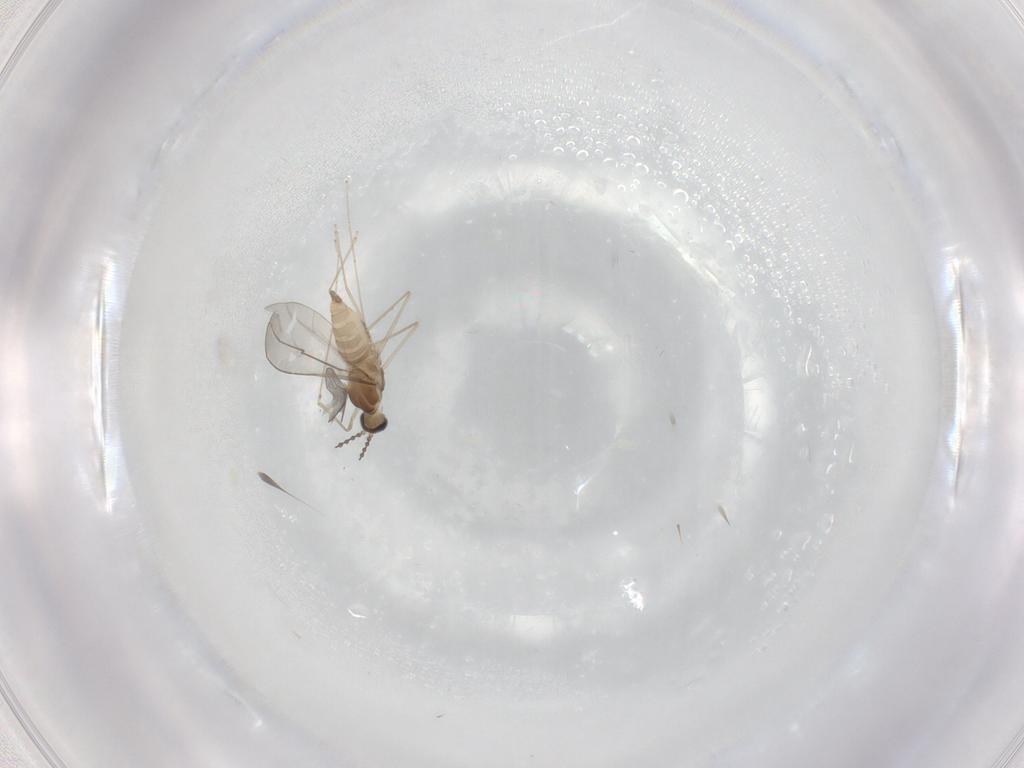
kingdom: Animalia
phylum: Arthropoda
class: Insecta
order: Diptera
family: Cecidomyiidae
